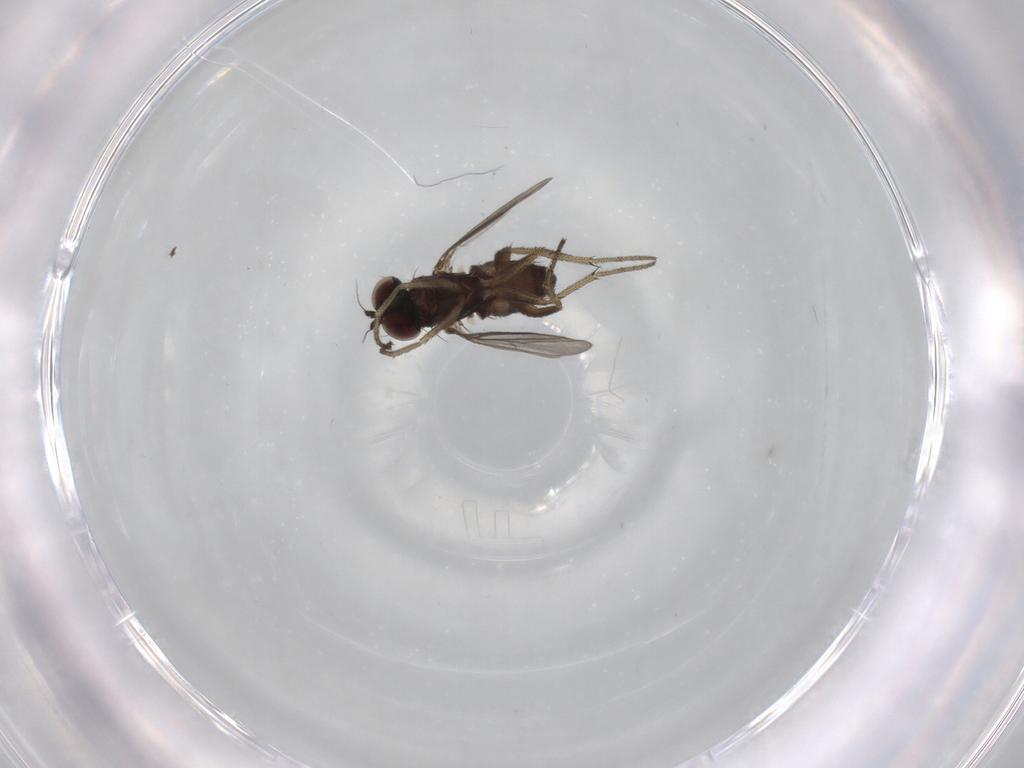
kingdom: Animalia
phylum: Arthropoda
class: Insecta
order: Diptera
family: Dolichopodidae
